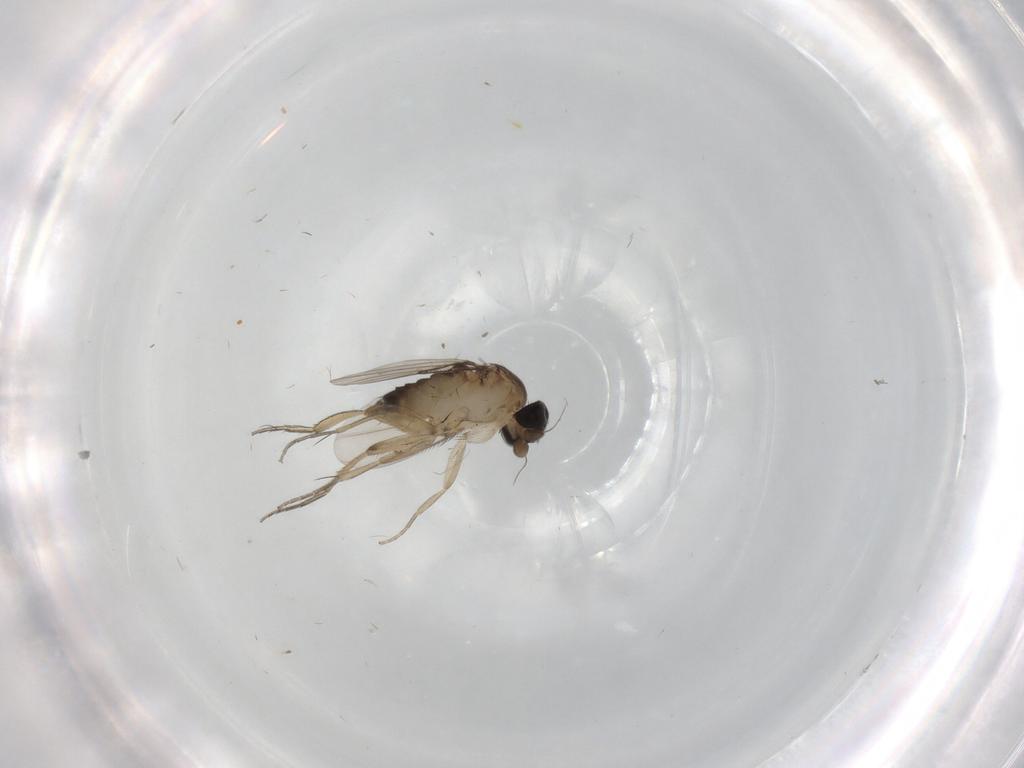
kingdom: Animalia
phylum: Arthropoda
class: Insecta
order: Diptera
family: Phoridae
